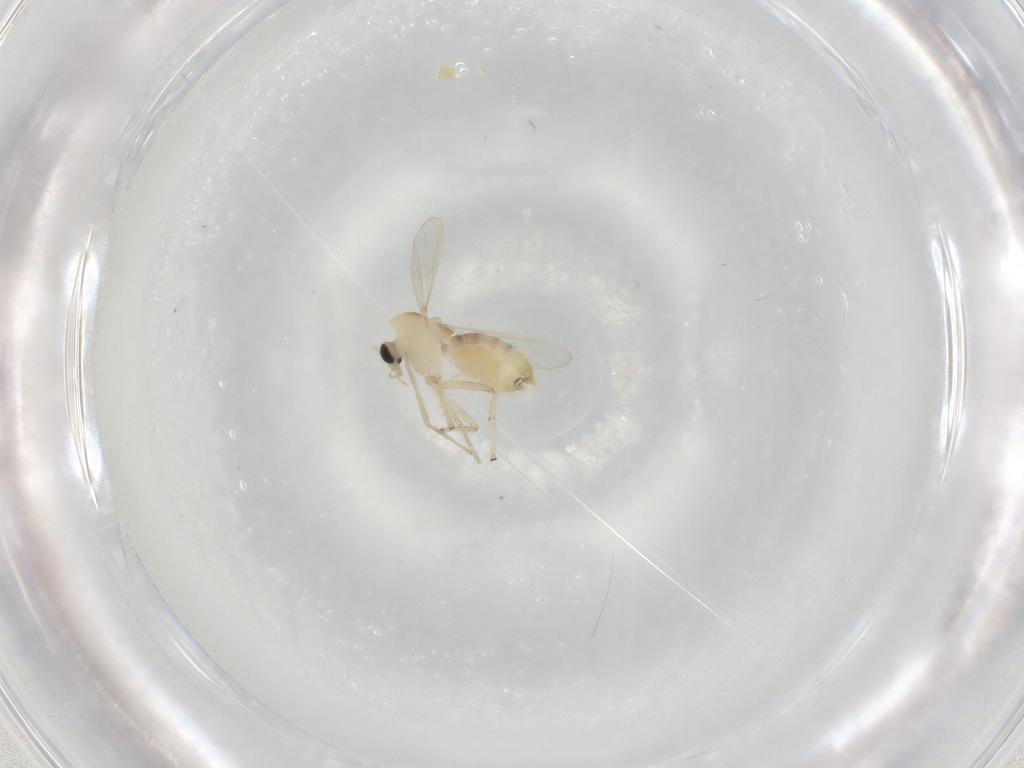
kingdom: Animalia
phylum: Arthropoda
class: Insecta
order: Diptera
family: Chironomidae
